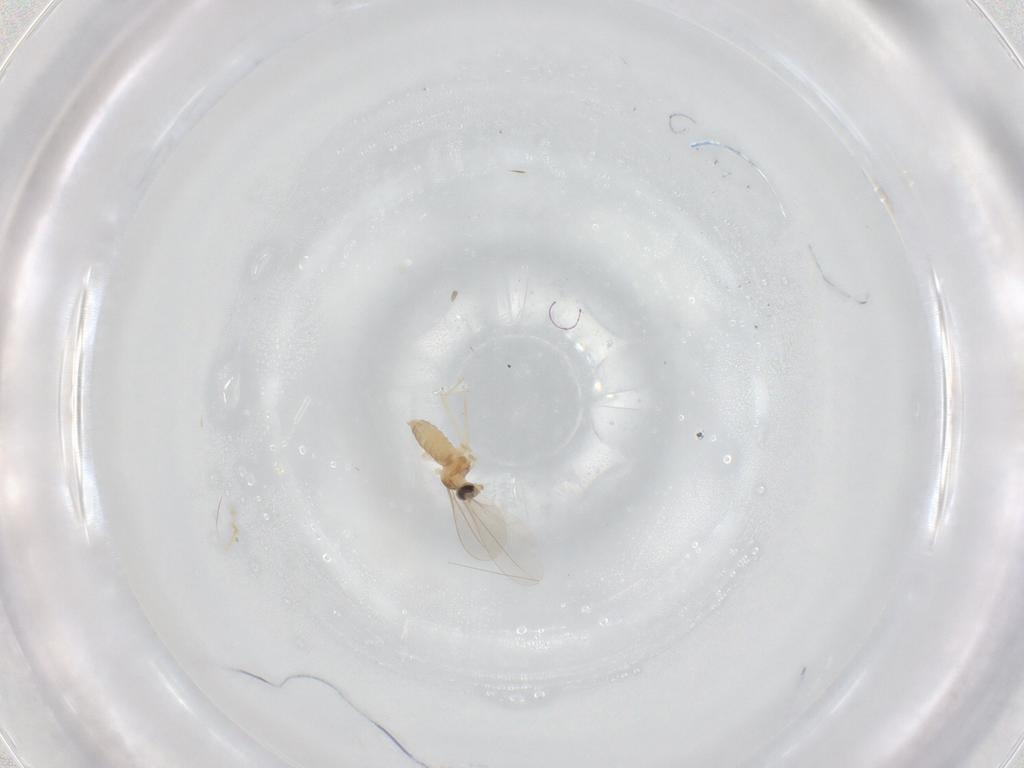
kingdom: Animalia
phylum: Arthropoda
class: Insecta
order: Diptera
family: Cecidomyiidae
